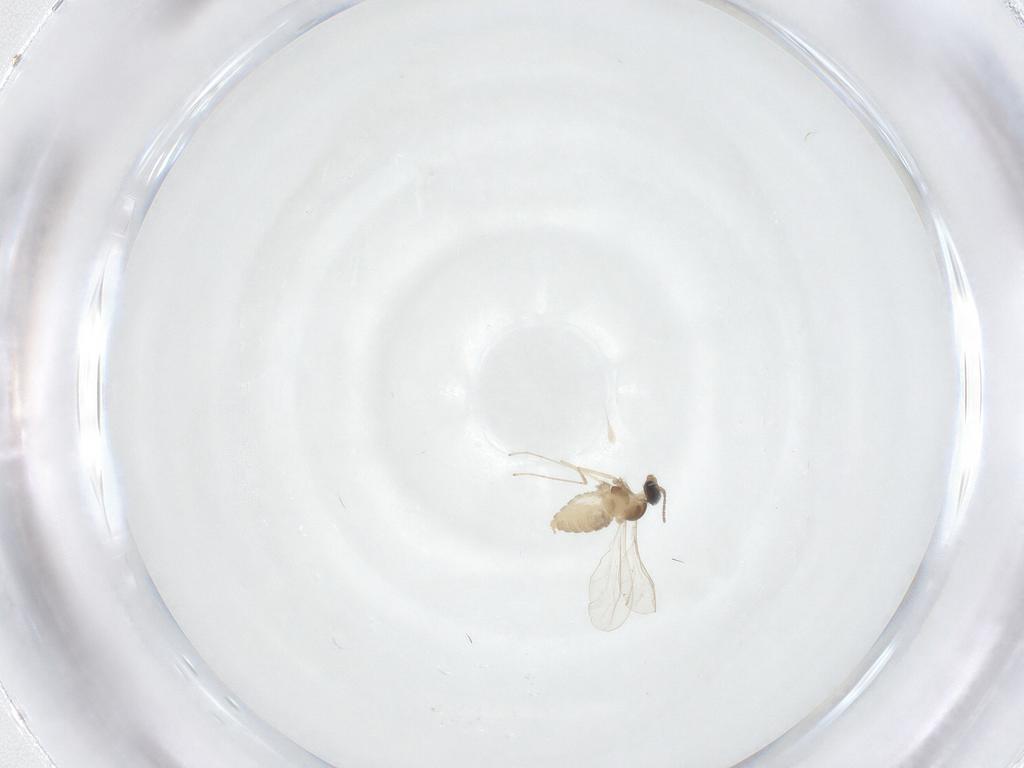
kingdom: Animalia
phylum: Arthropoda
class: Insecta
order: Diptera
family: Cecidomyiidae
